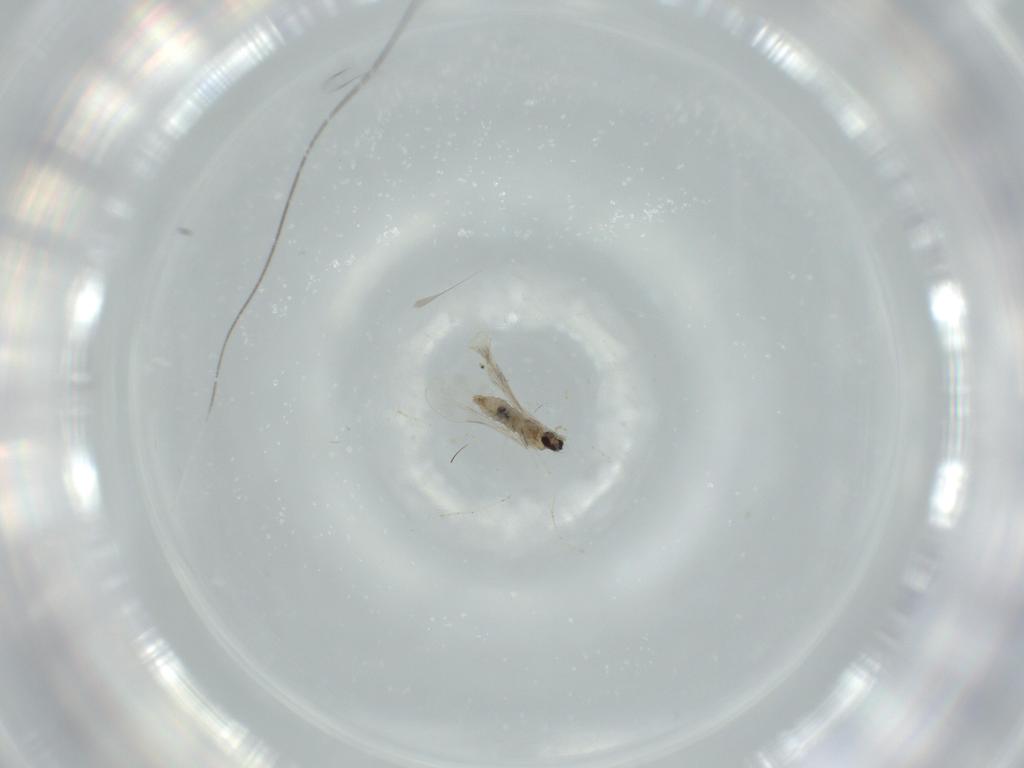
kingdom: Animalia
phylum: Arthropoda
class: Insecta
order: Diptera
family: Cecidomyiidae
